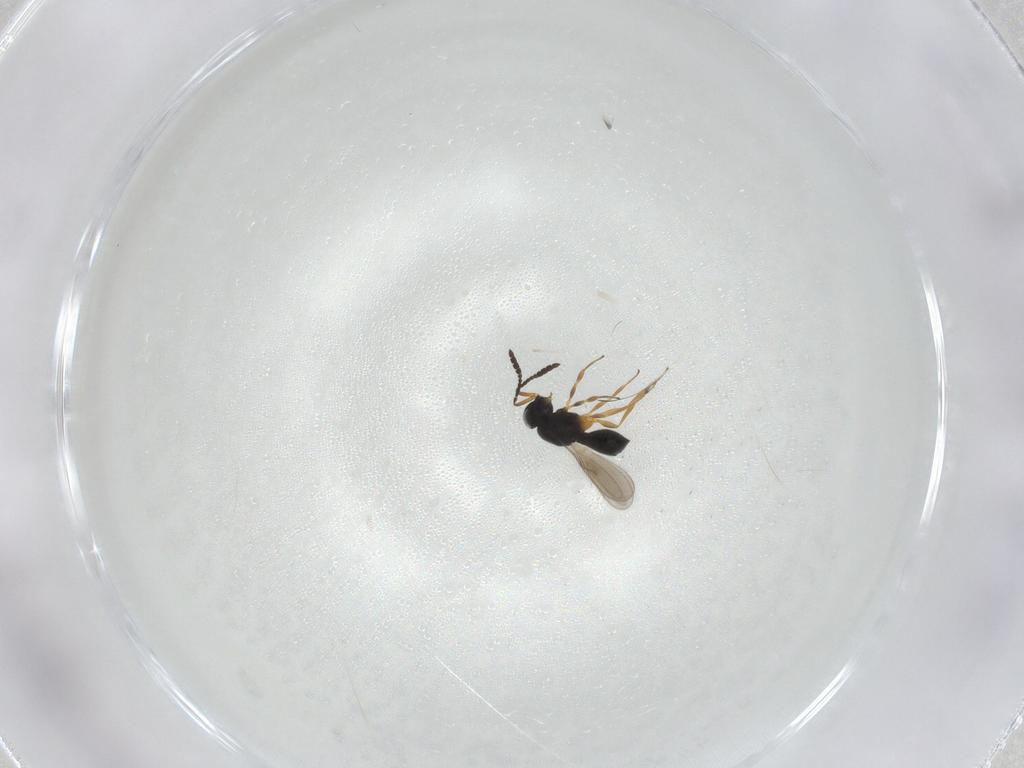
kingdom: Animalia
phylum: Arthropoda
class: Insecta
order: Hymenoptera
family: Scelionidae
